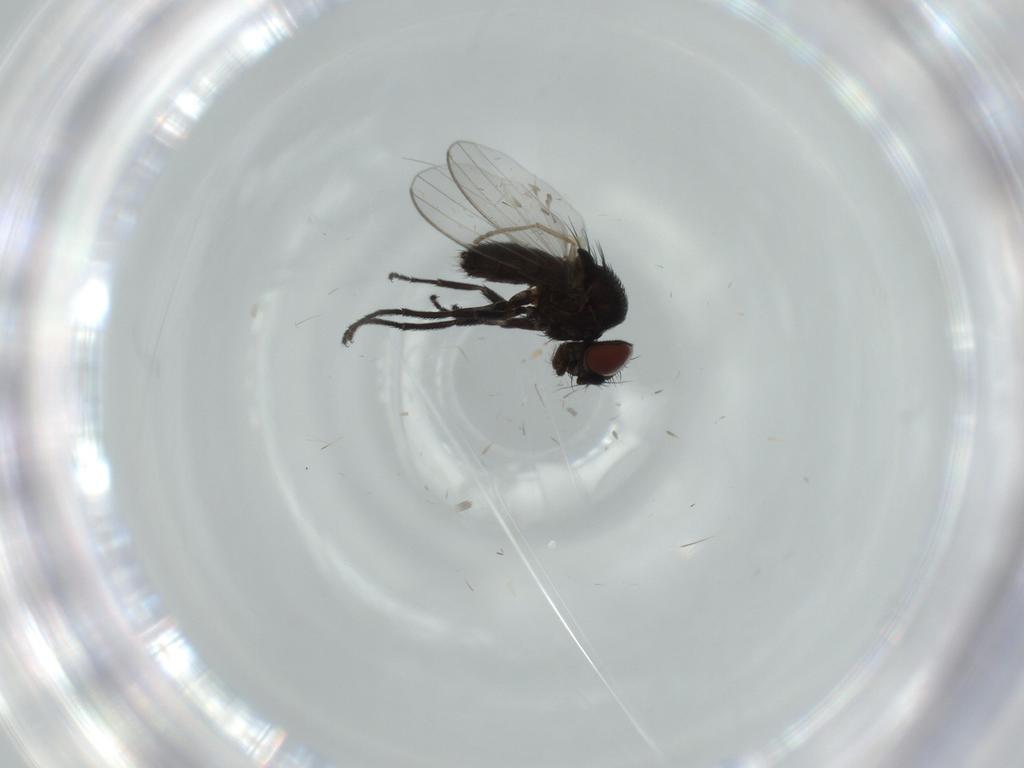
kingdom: Animalia
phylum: Arthropoda
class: Insecta
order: Diptera
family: Milichiidae
